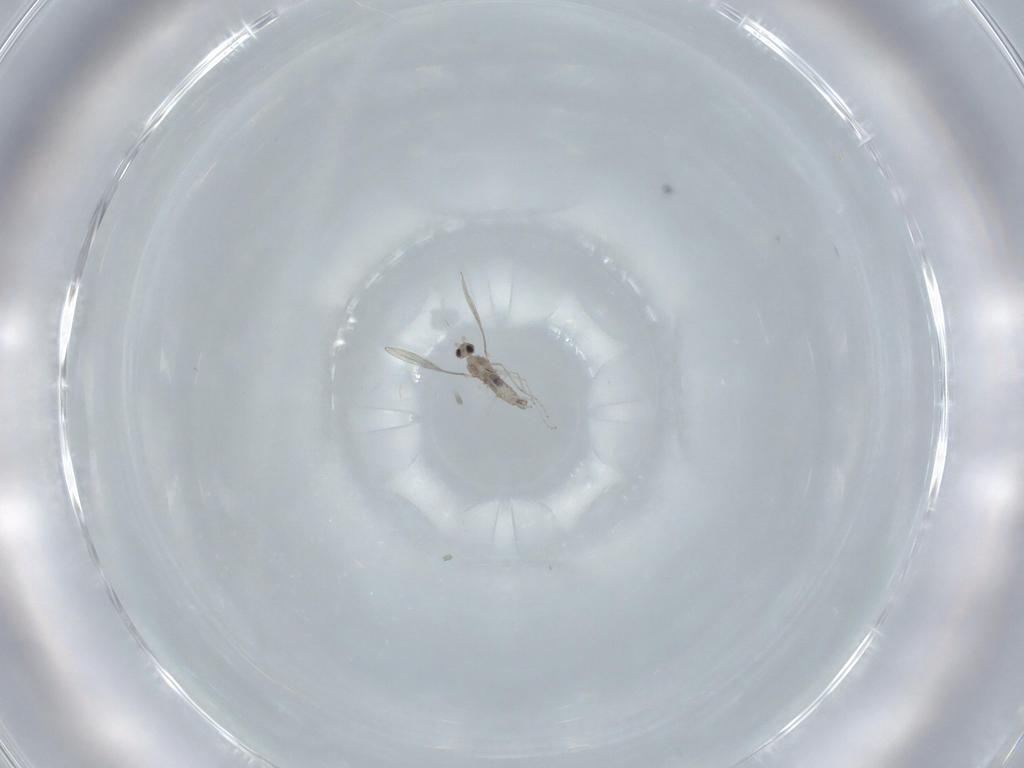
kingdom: Animalia
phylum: Arthropoda
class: Insecta
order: Diptera
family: Cecidomyiidae
